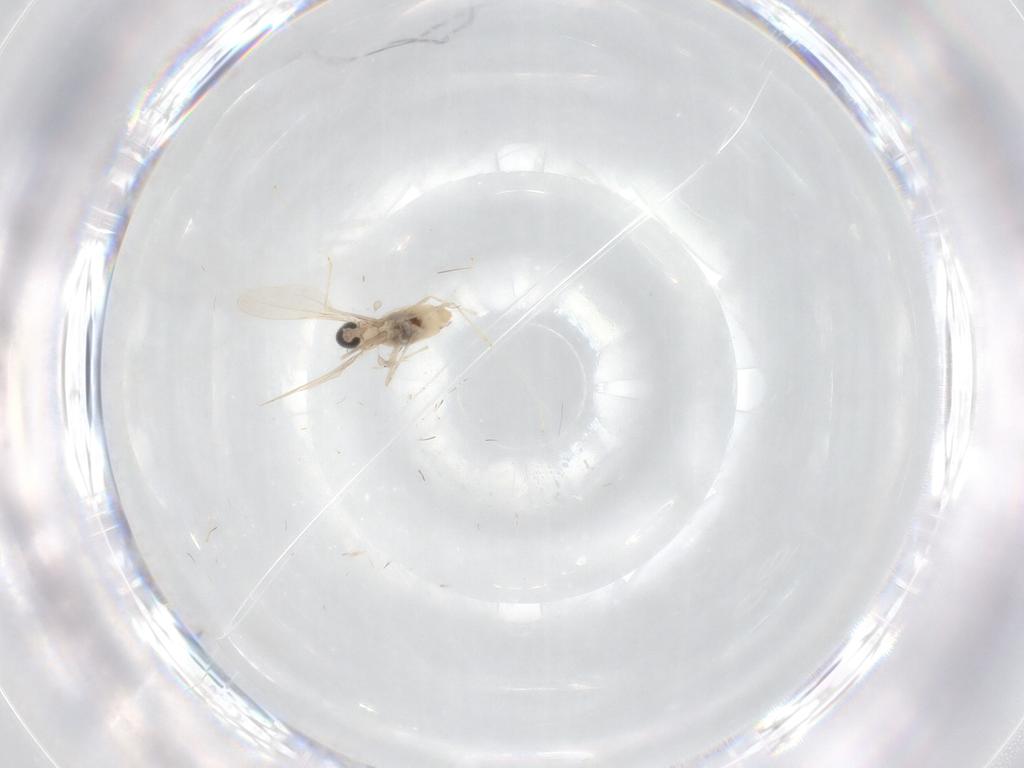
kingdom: Animalia
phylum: Arthropoda
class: Insecta
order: Diptera
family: Cecidomyiidae
